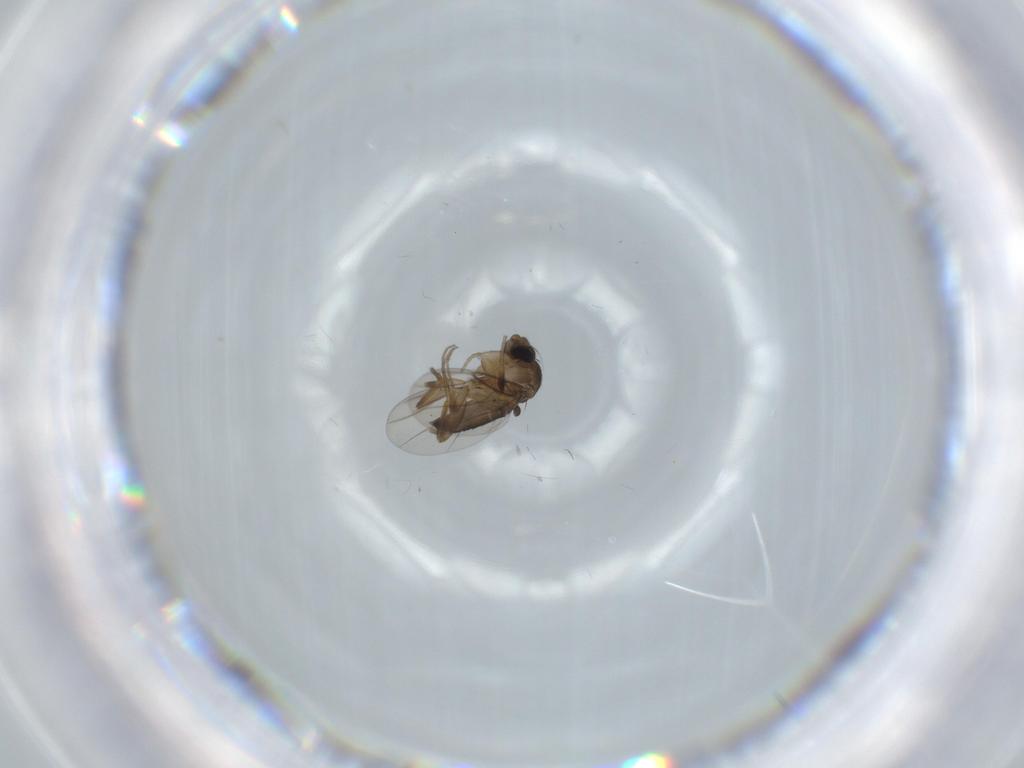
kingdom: Animalia
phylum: Arthropoda
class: Insecta
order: Diptera
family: Phoridae
